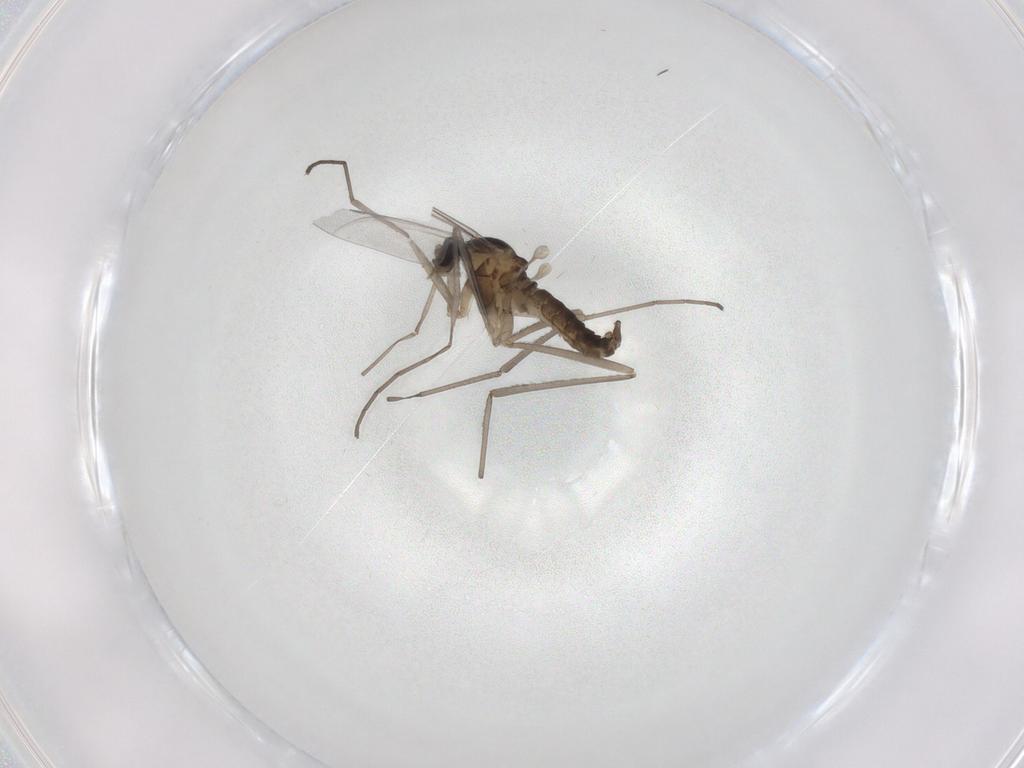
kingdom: Animalia
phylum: Arthropoda
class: Insecta
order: Diptera
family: Cecidomyiidae
